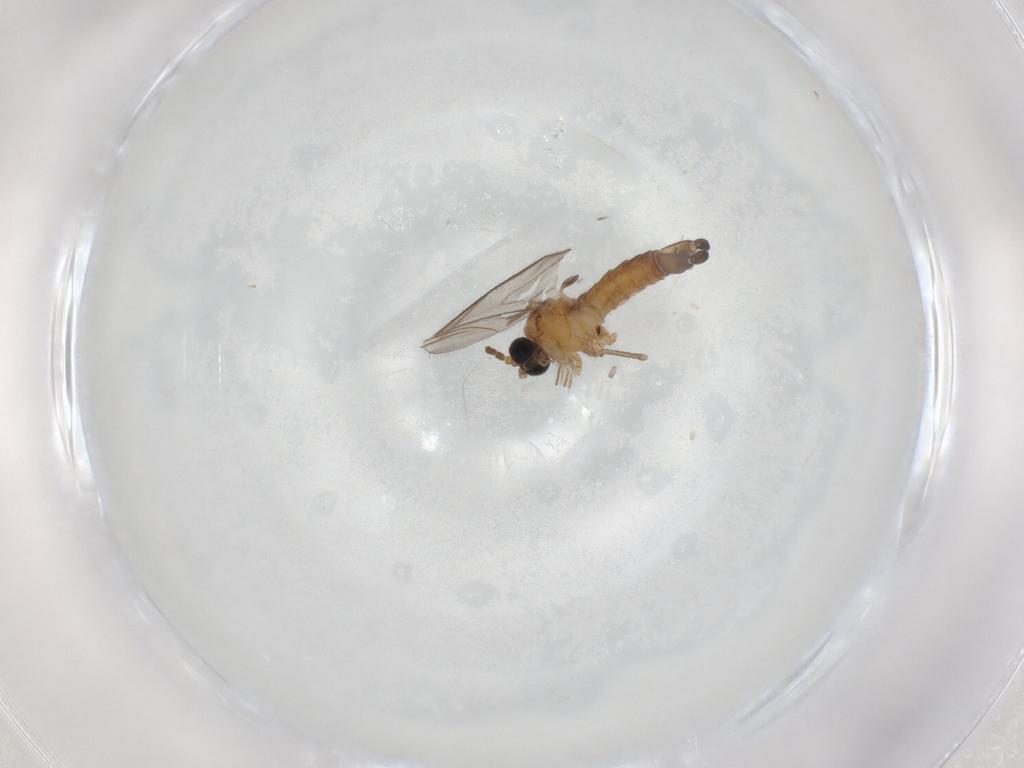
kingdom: Animalia
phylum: Arthropoda
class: Insecta
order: Diptera
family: Sciaridae
